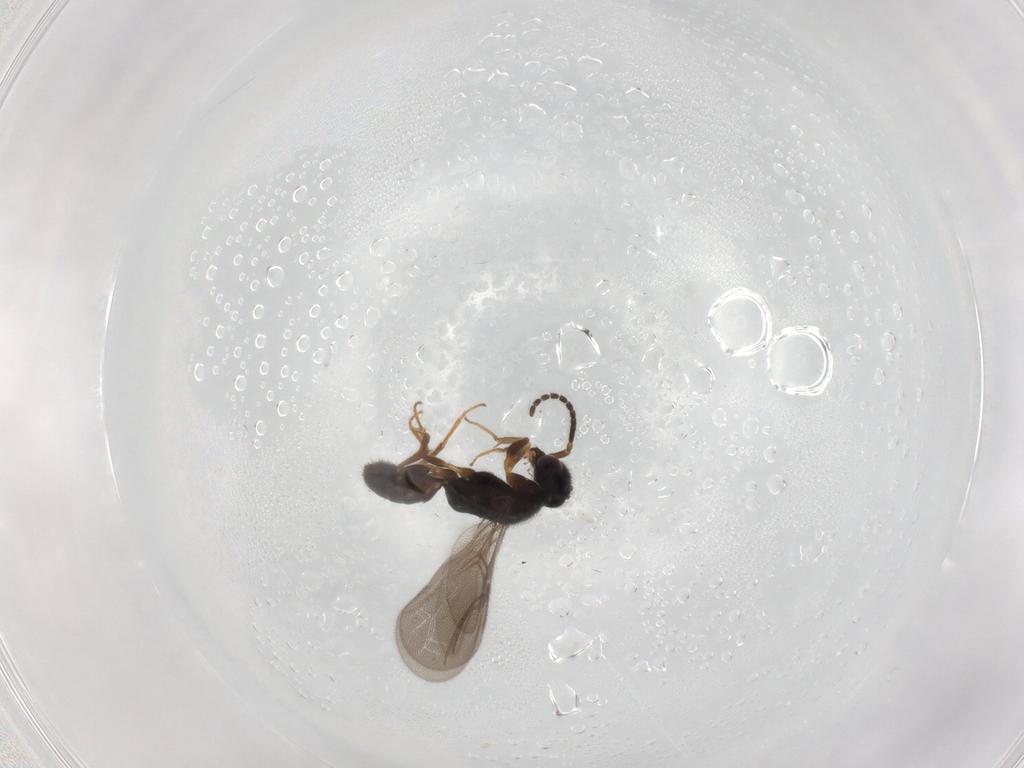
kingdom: Animalia
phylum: Arthropoda
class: Insecta
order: Hymenoptera
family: Bethylidae
